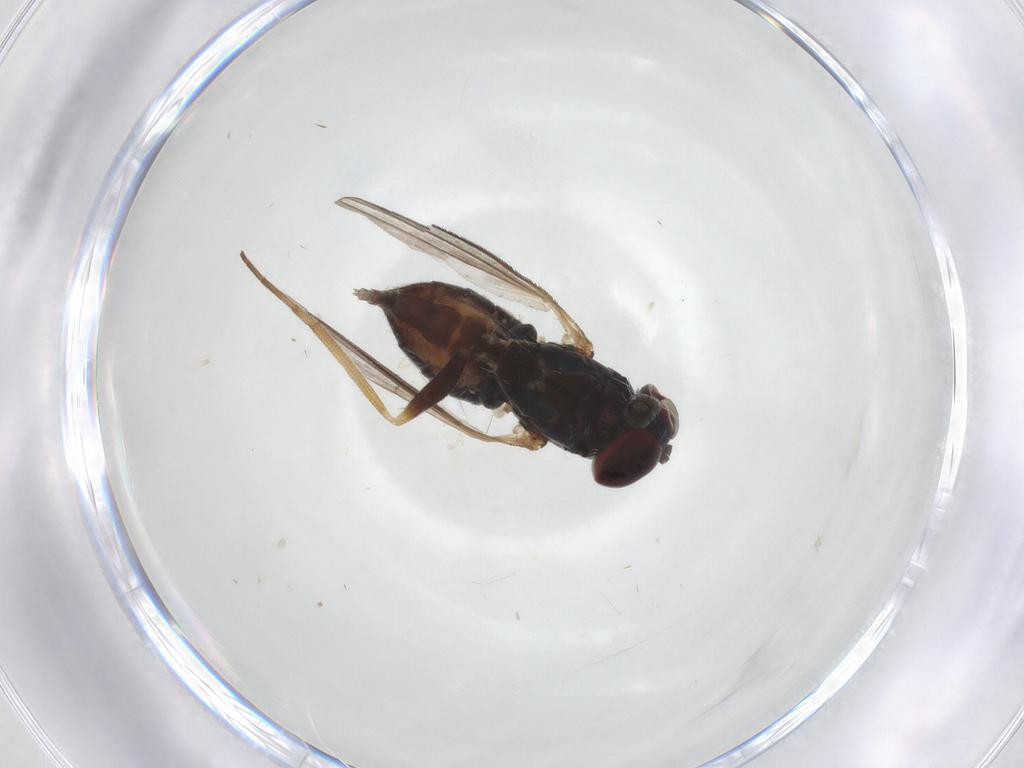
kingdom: Animalia
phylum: Arthropoda
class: Insecta
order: Diptera
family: Dolichopodidae
